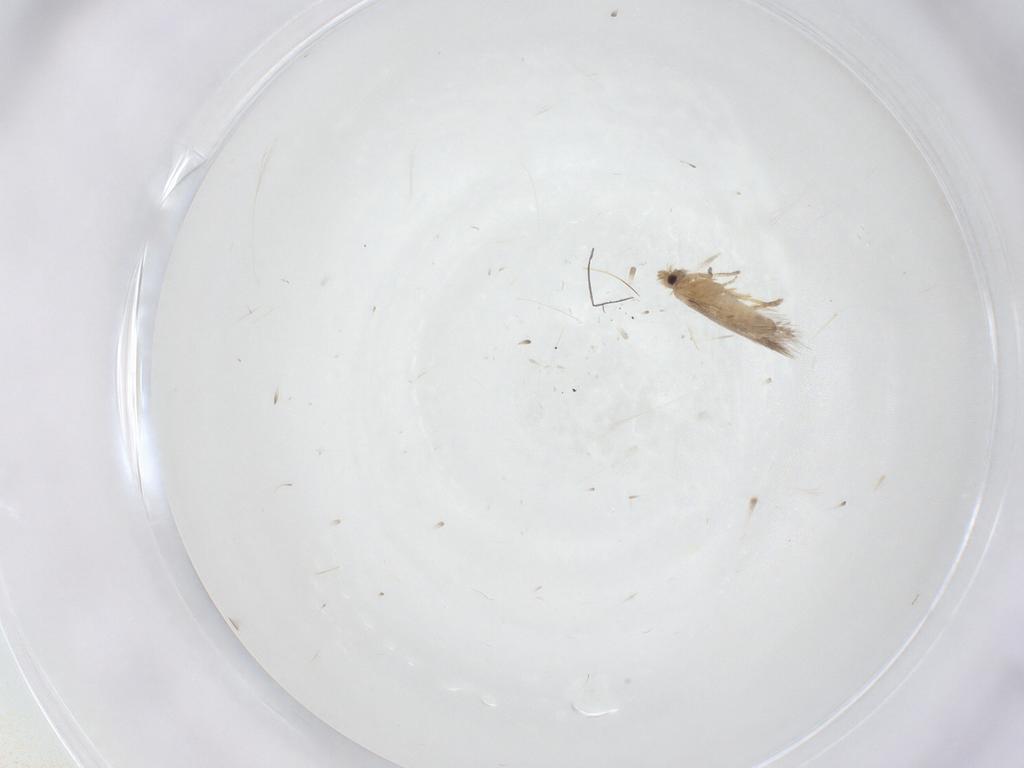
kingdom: Animalia
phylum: Arthropoda
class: Insecta
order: Lepidoptera
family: Nepticulidae
